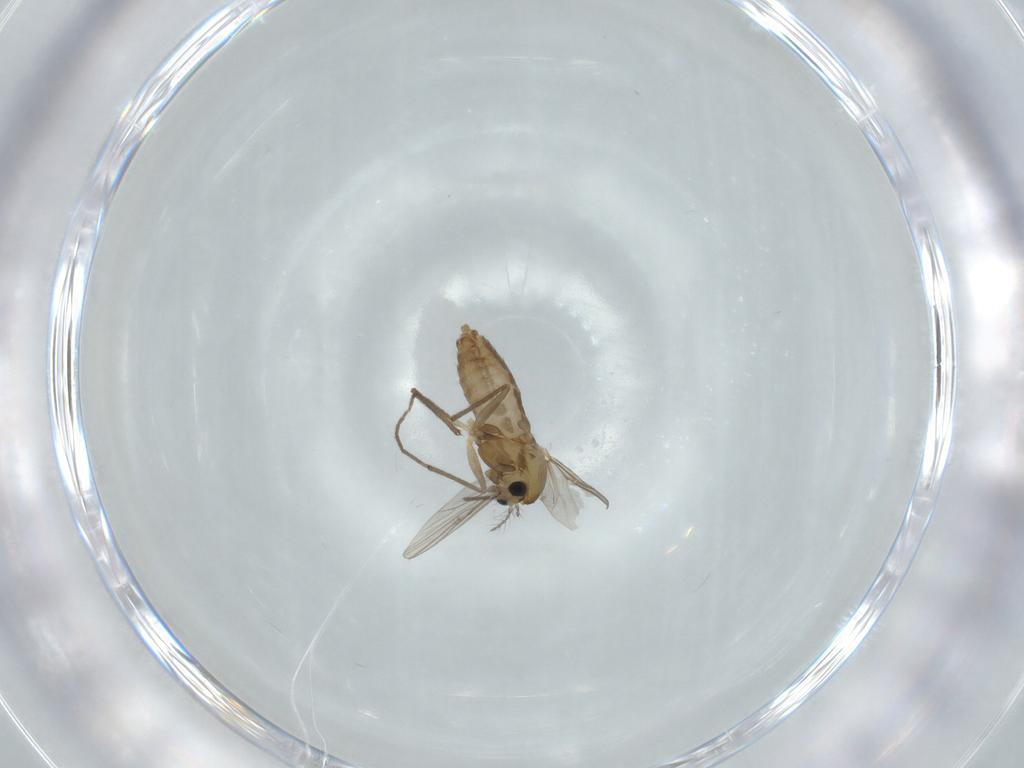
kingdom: Animalia
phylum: Arthropoda
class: Insecta
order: Diptera
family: Chironomidae
